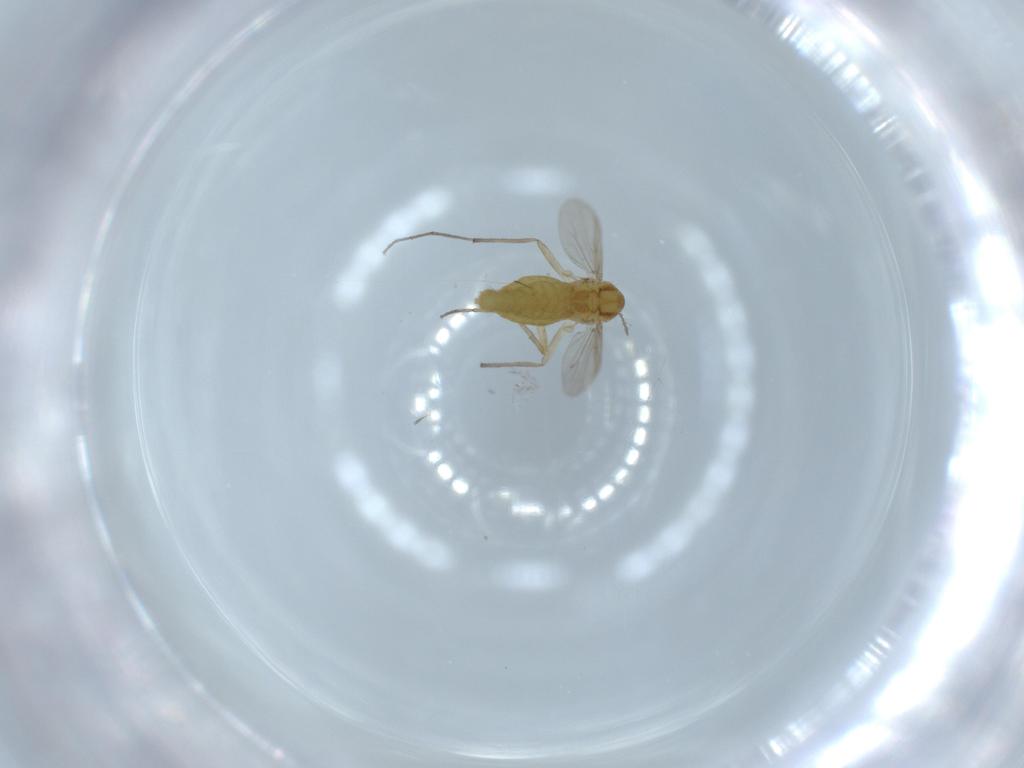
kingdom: Animalia
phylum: Arthropoda
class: Insecta
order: Diptera
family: Chironomidae
